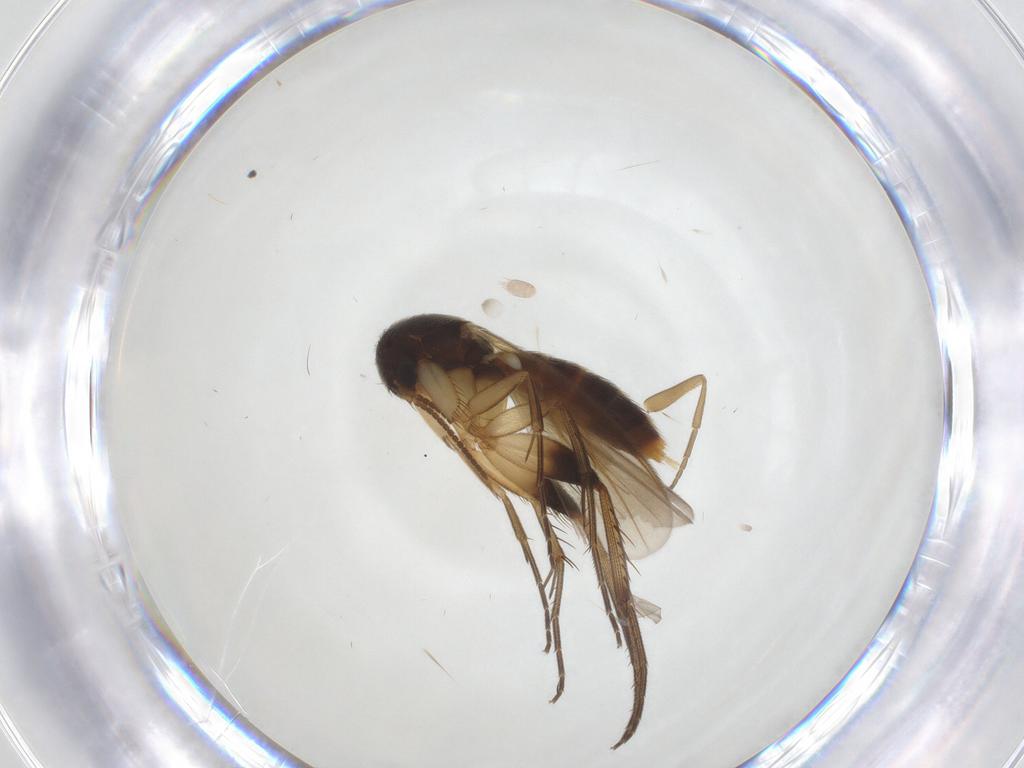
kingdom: Animalia
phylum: Arthropoda
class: Insecta
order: Diptera
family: Phoridae
